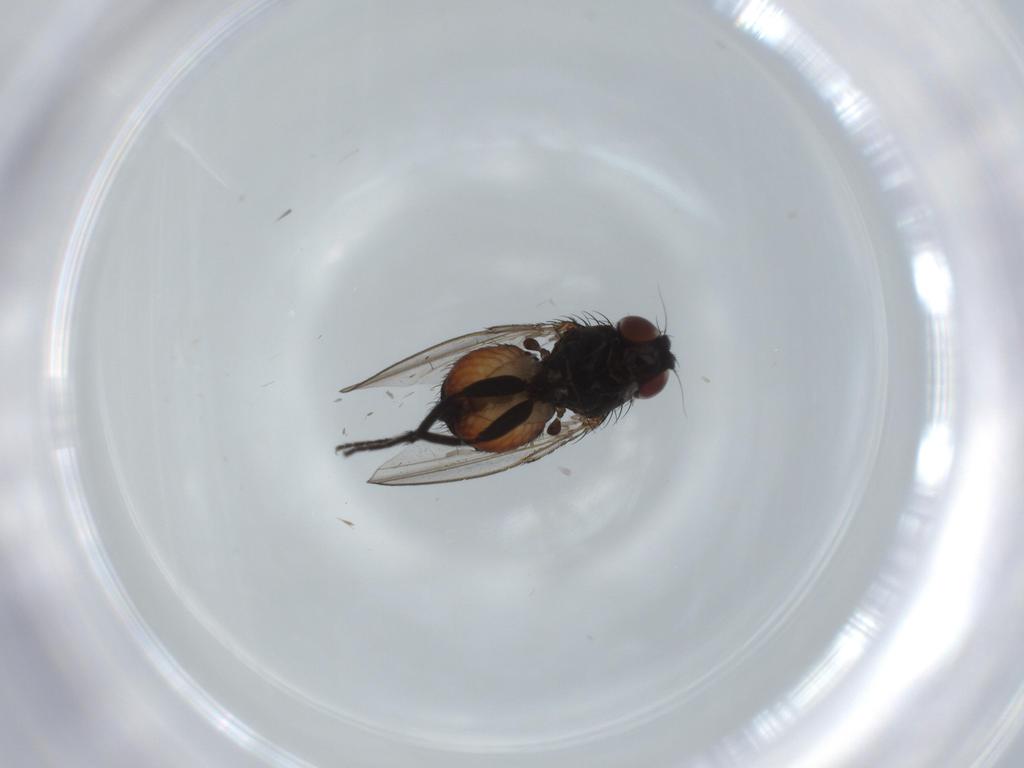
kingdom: Animalia
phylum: Arthropoda
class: Insecta
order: Diptera
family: Milichiidae
